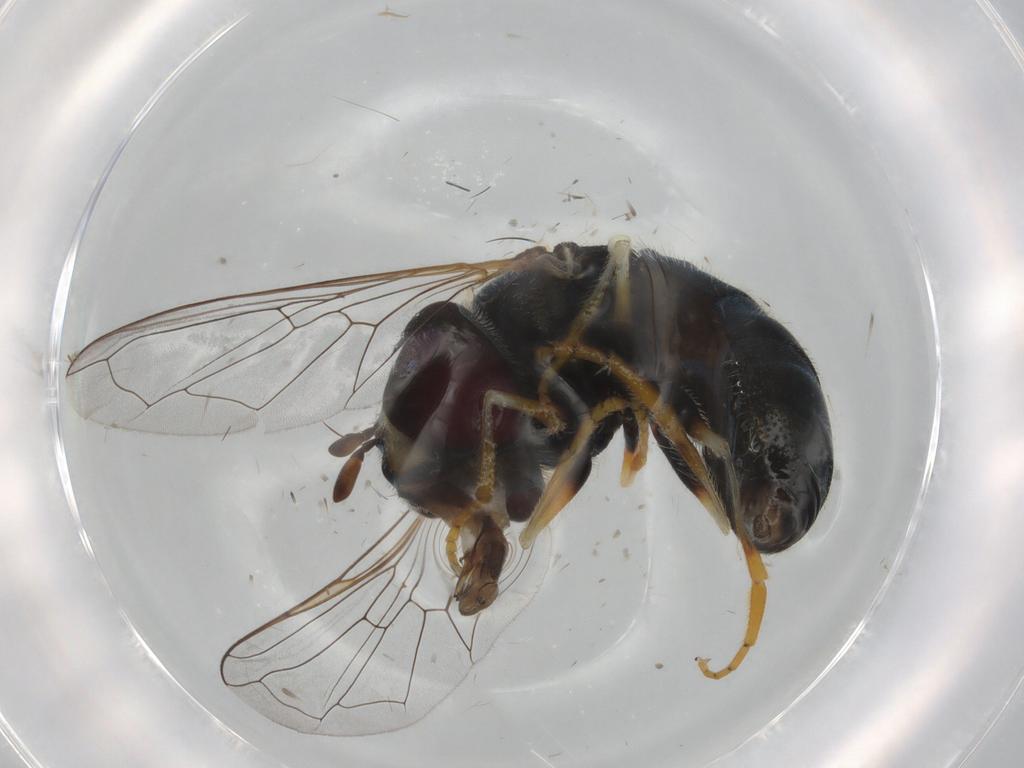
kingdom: Animalia
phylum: Arthropoda
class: Insecta
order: Diptera
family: Syrphidae
